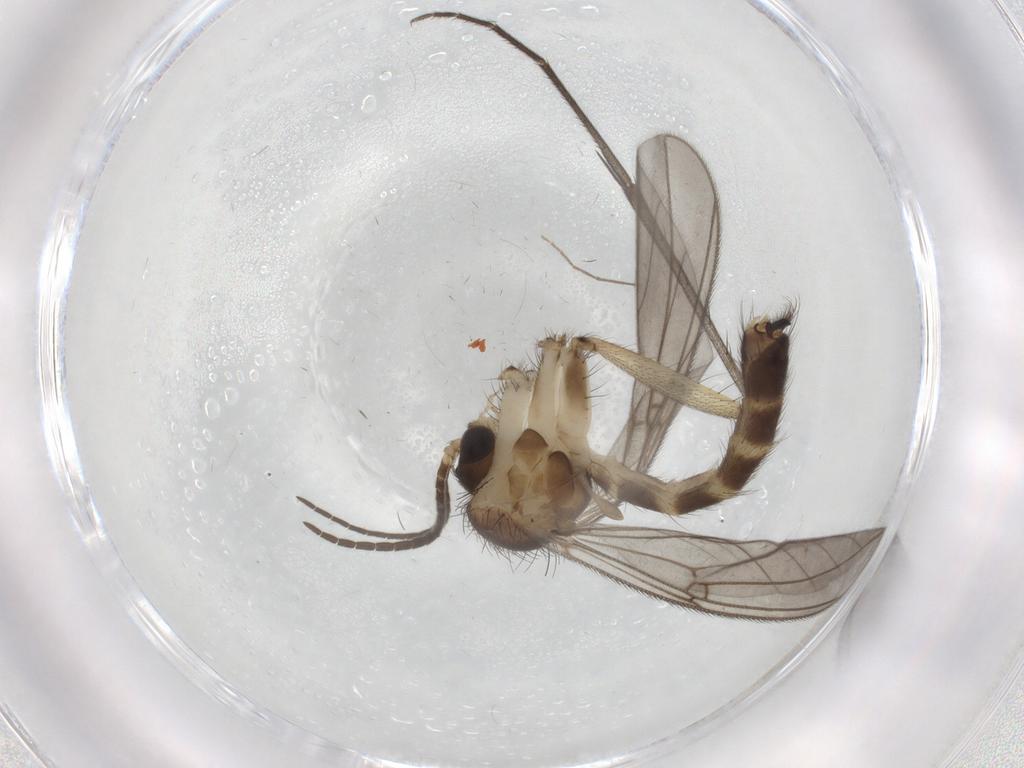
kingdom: Animalia
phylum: Arthropoda
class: Insecta
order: Diptera
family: Mycetophilidae
